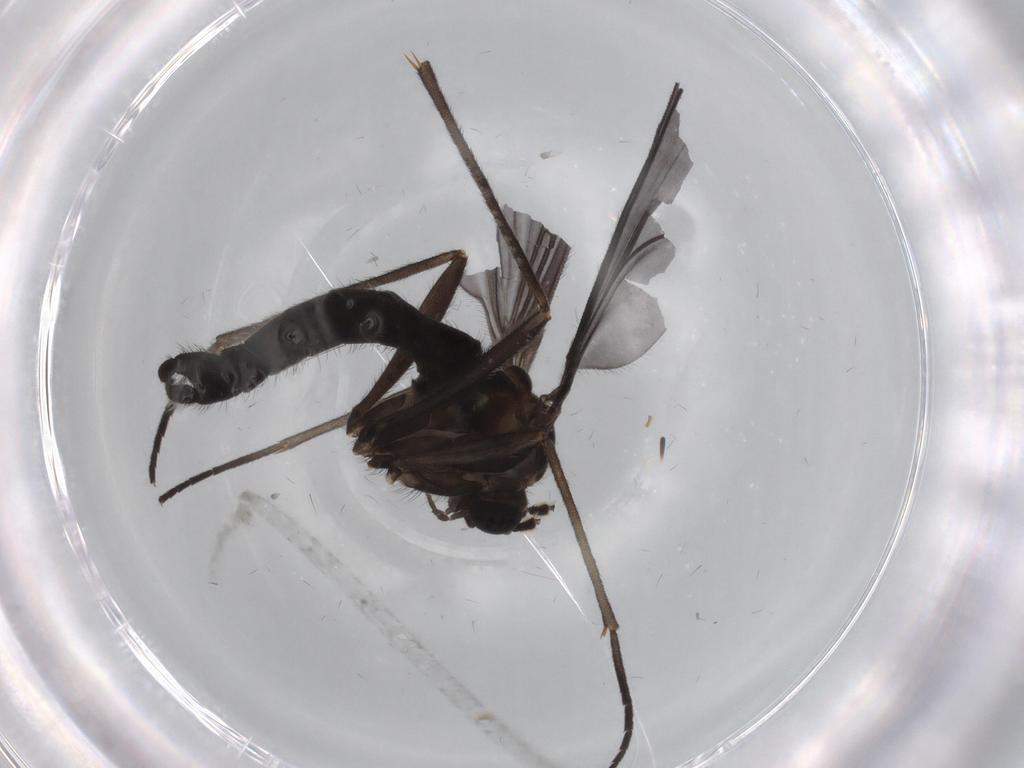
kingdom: Animalia
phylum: Arthropoda
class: Insecta
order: Diptera
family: Sciaridae
